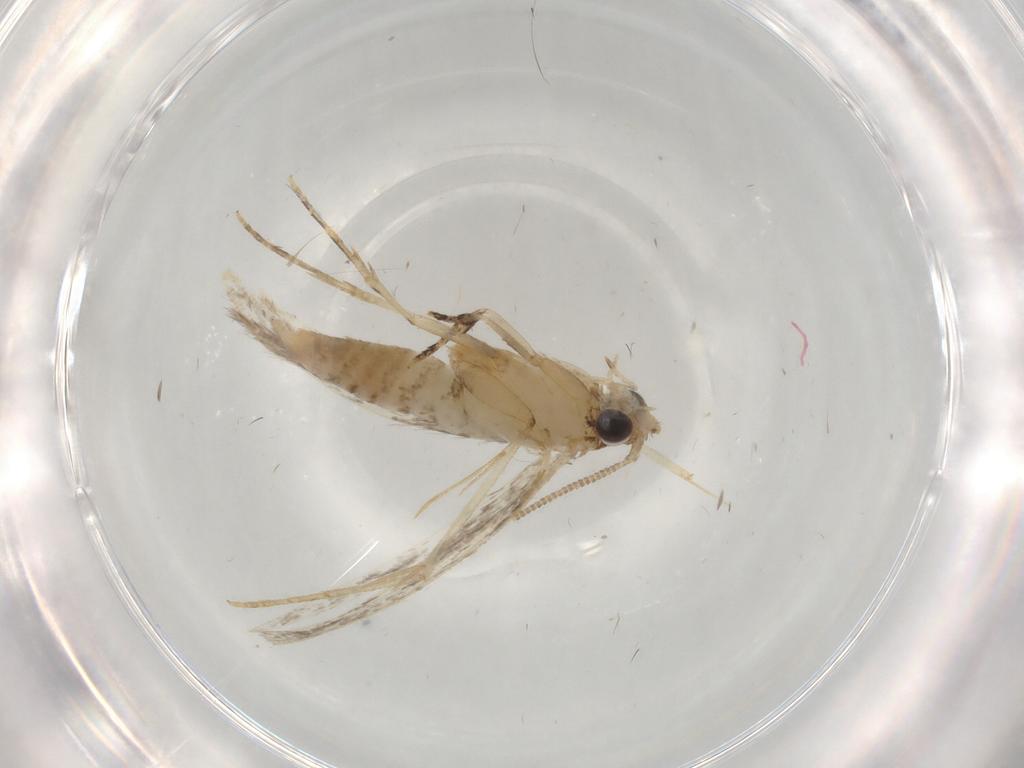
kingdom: Animalia
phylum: Arthropoda
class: Insecta
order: Lepidoptera
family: Tineidae
